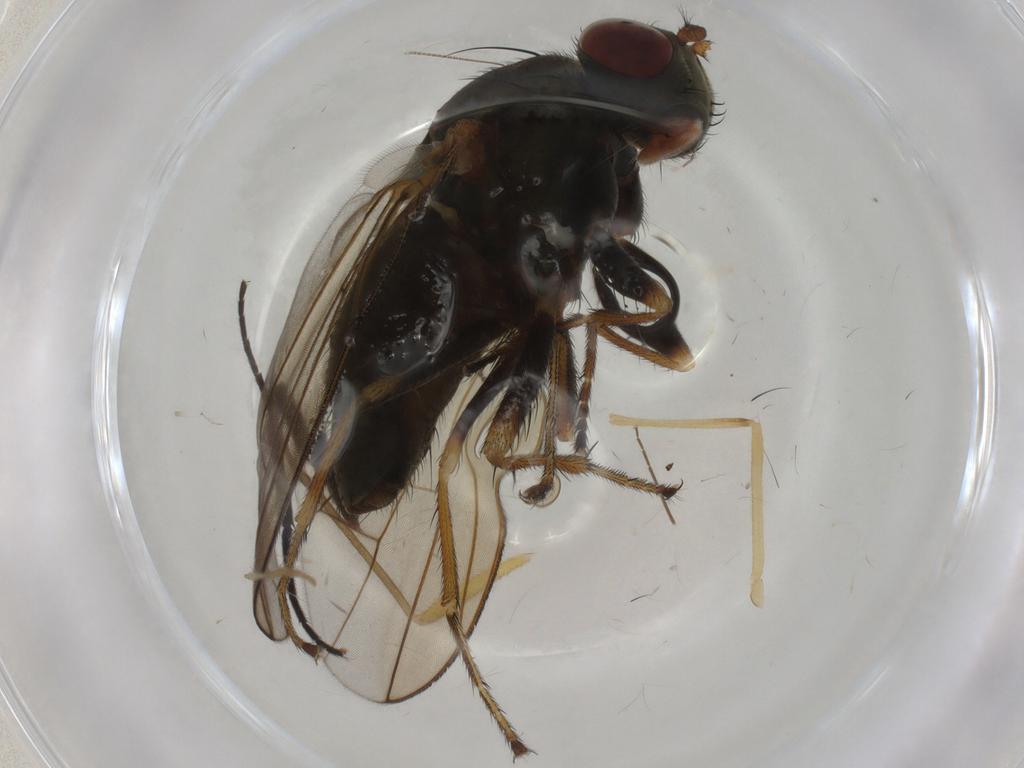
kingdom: Animalia
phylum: Arthropoda
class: Insecta
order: Diptera
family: Ephydridae
